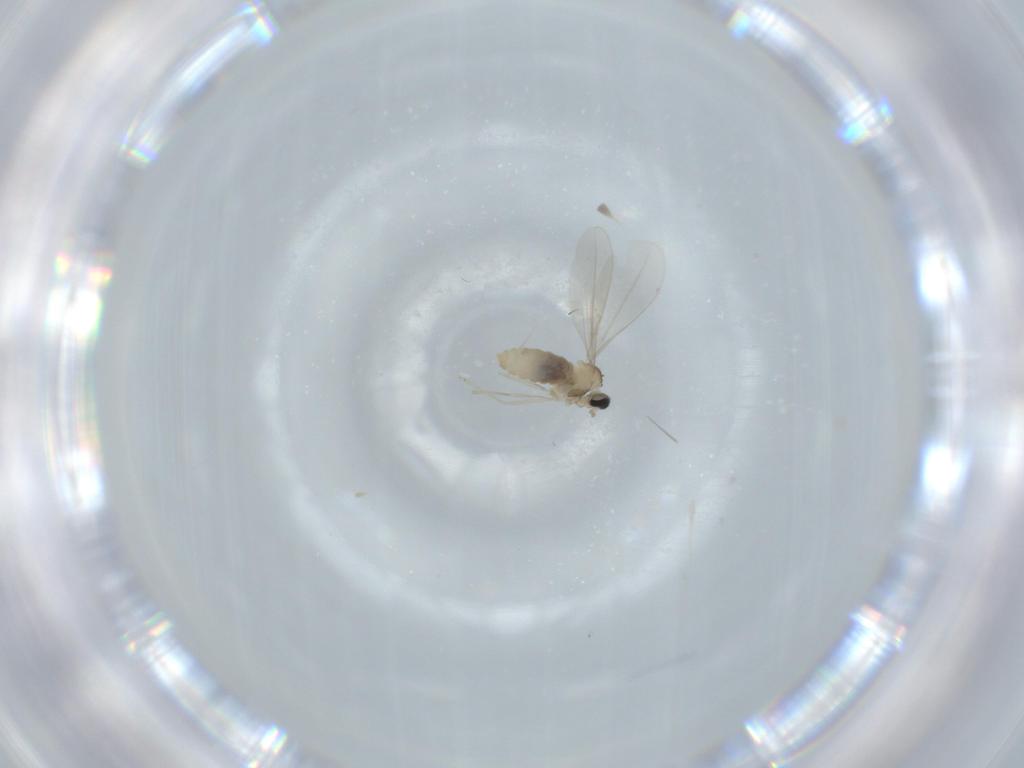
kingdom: Animalia
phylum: Arthropoda
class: Insecta
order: Diptera
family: Cecidomyiidae
